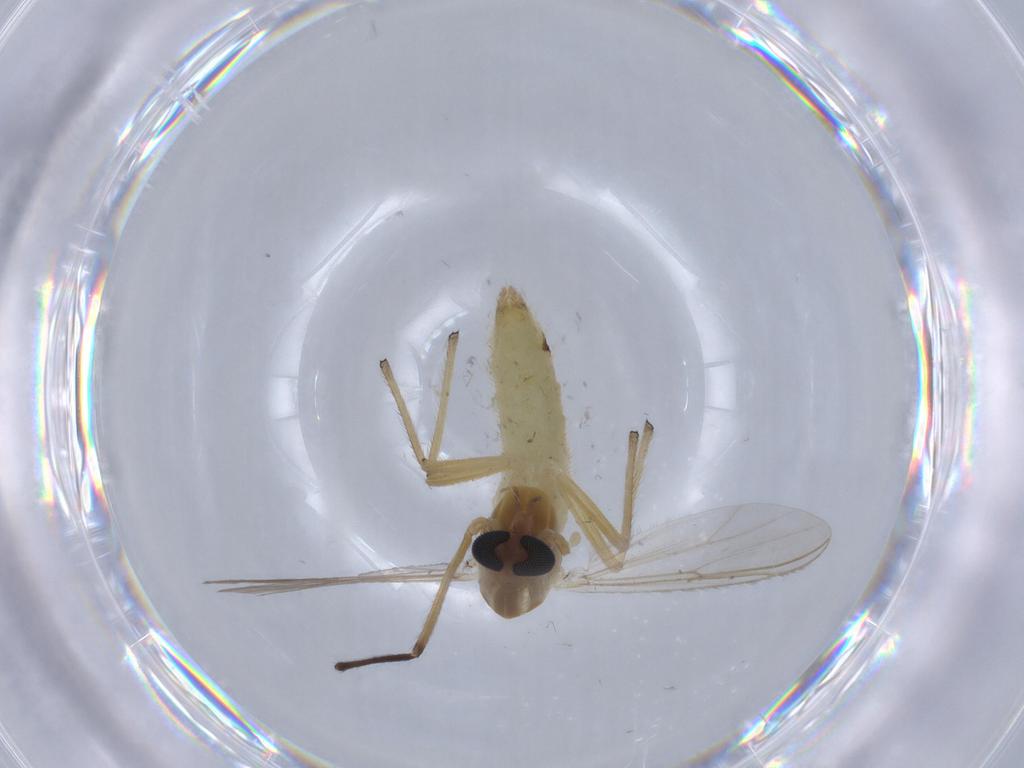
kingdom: Animalia
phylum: Arthropoda
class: Insecta
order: Diptera
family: Chironomidae
